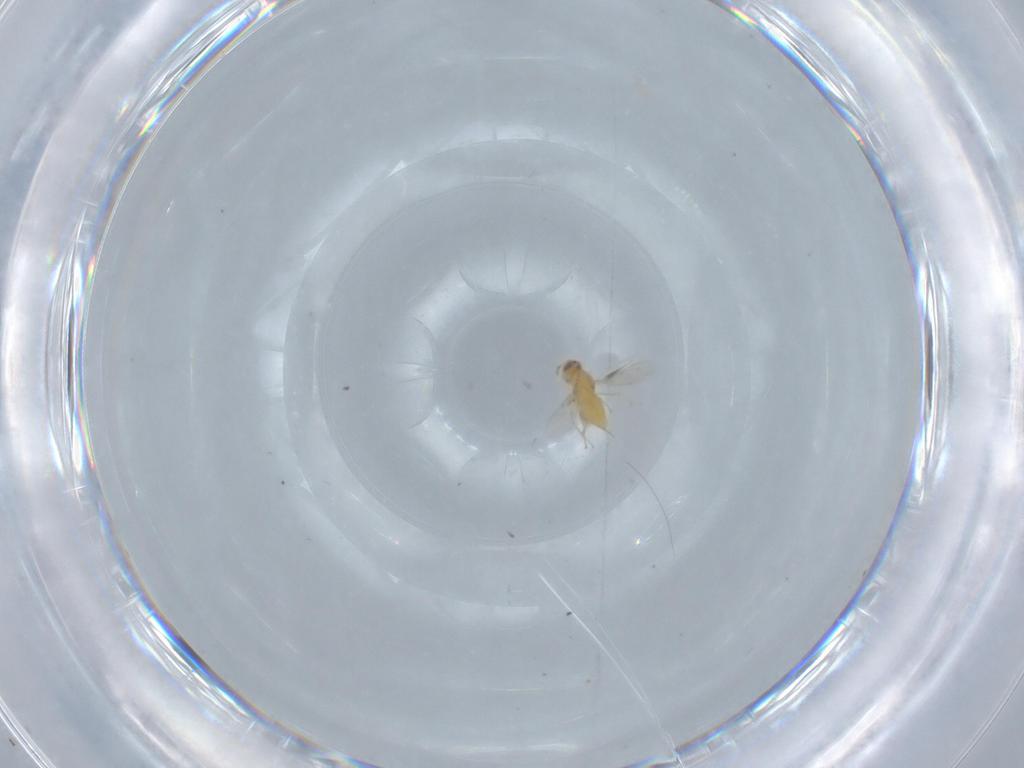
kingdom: Animalia
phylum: Arthropoda
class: Insecta
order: Hymenoptera
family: Aphelinidae
